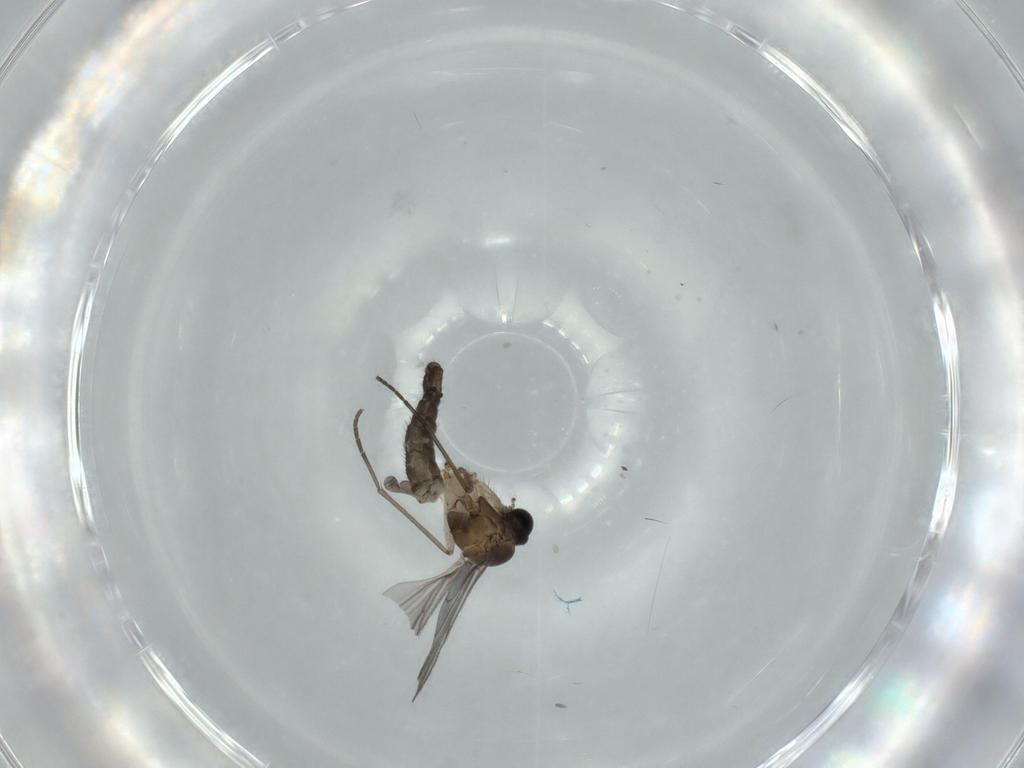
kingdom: Animalia
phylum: Arthropoda
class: Insecta
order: Diptera
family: Sciaridae
